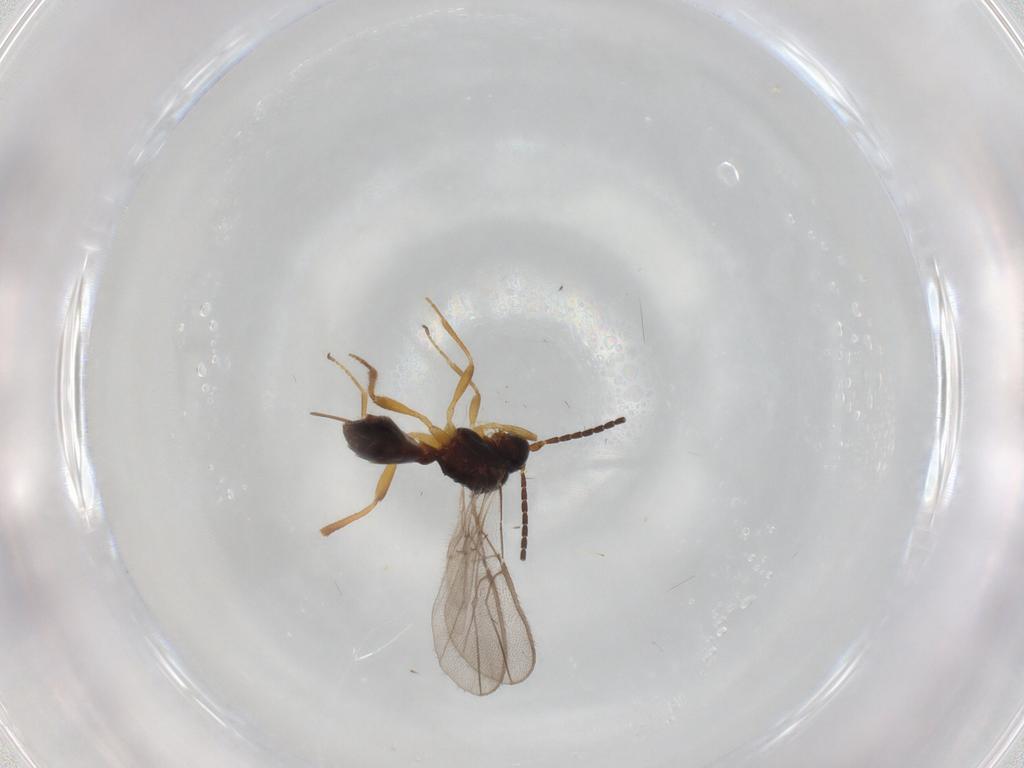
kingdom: Animalia
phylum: Arthropoda
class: Insecta
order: Hymenoptera
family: Braconidae
